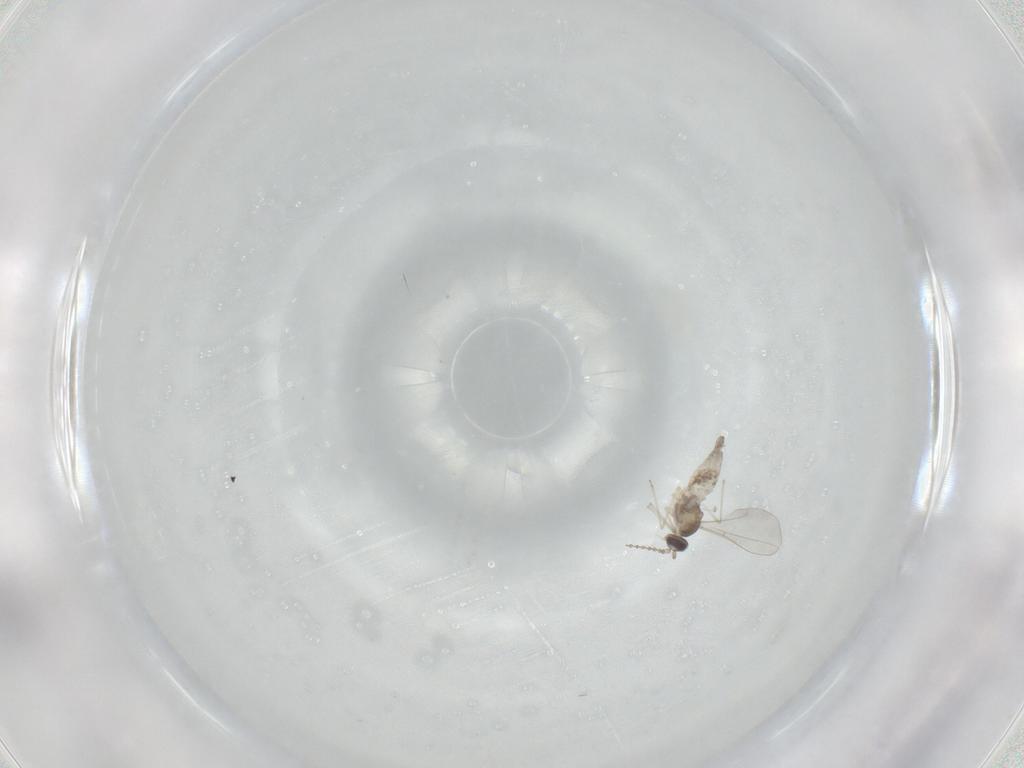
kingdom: Animalia
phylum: Arthropoda
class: Insecta
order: Diptera
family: Cecidomyiidae
